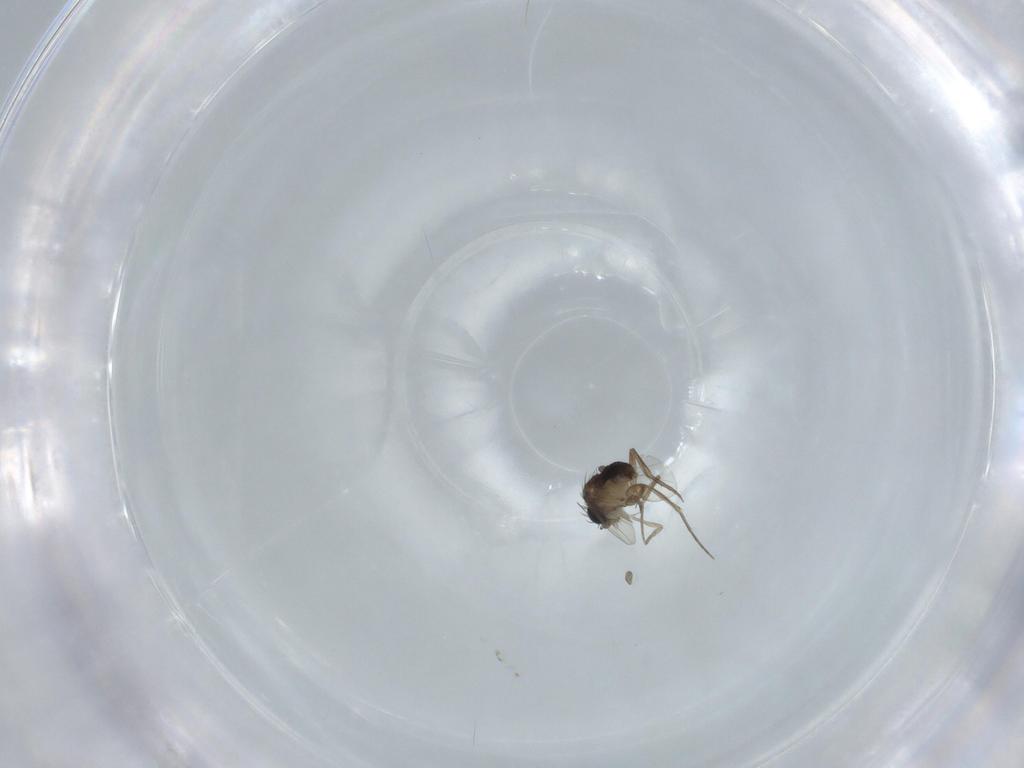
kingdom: Animalia
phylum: Arthropoda
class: Insecta
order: Diptera
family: Phoridae
